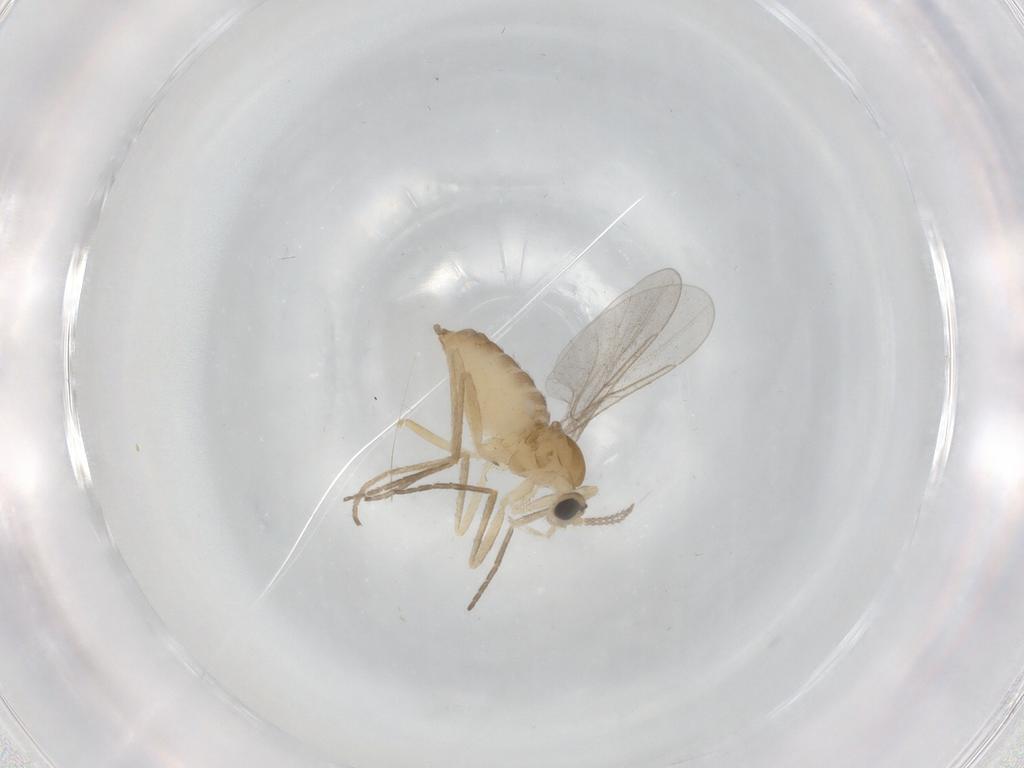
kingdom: Animalia
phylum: Arthropoda
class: Insecta
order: Diptera
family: Cecidomyiidae
